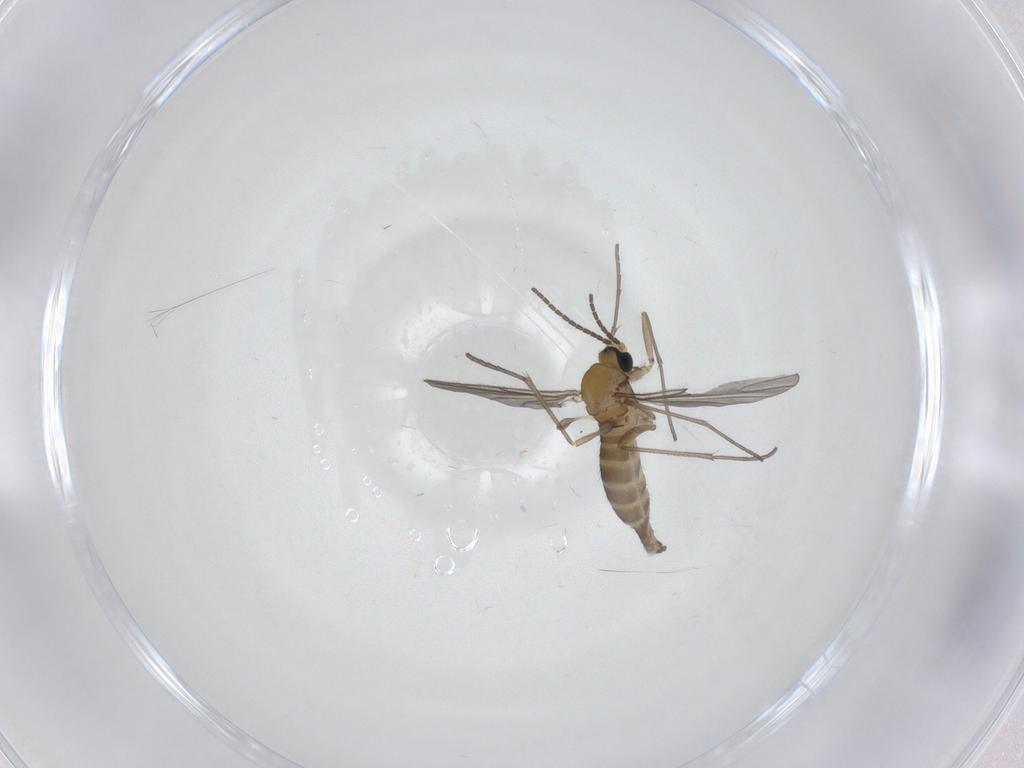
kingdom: Animalia
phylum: Arthropoda
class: Insecta
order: Diptera
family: Sciaridae
